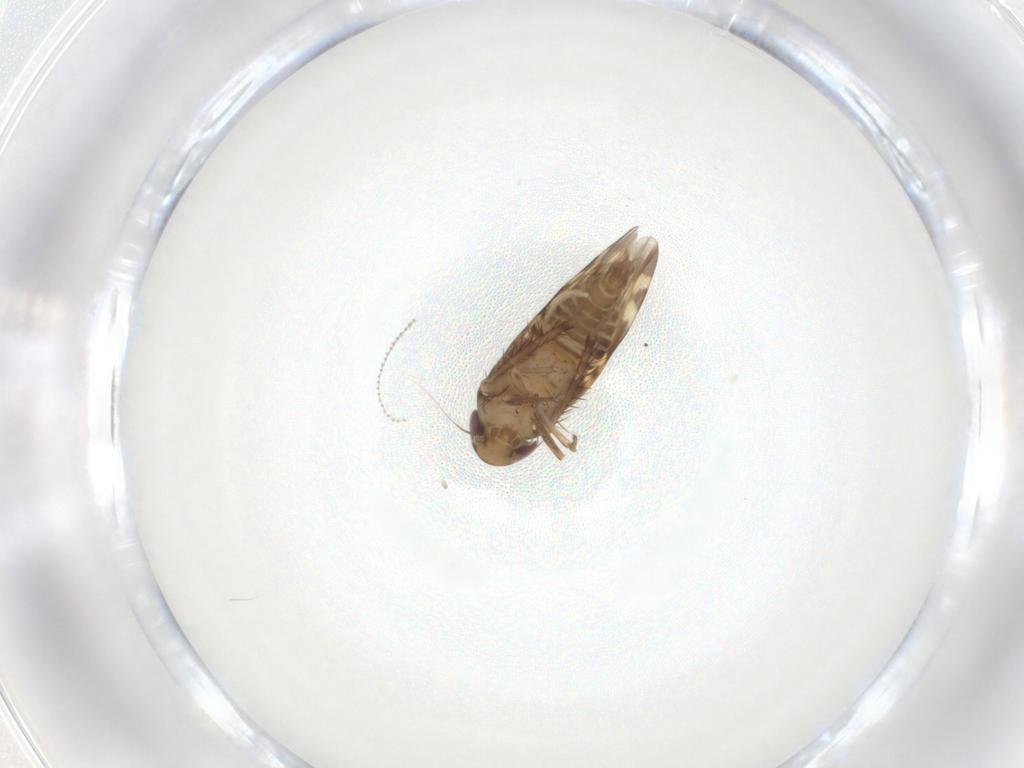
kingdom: Animalia
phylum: Arthropoda
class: Insecta
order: Hemiptera
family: Cicadellidae
